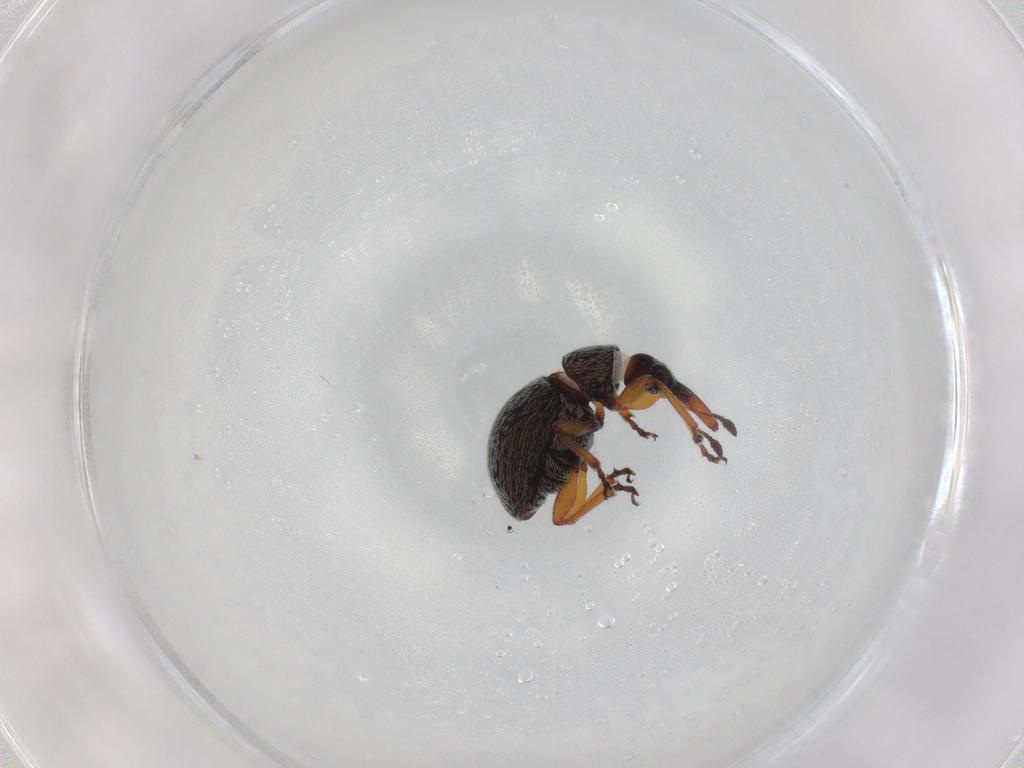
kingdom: Animalia
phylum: Arthropoda
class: Insecta
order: Coleoptera
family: Brentidae
